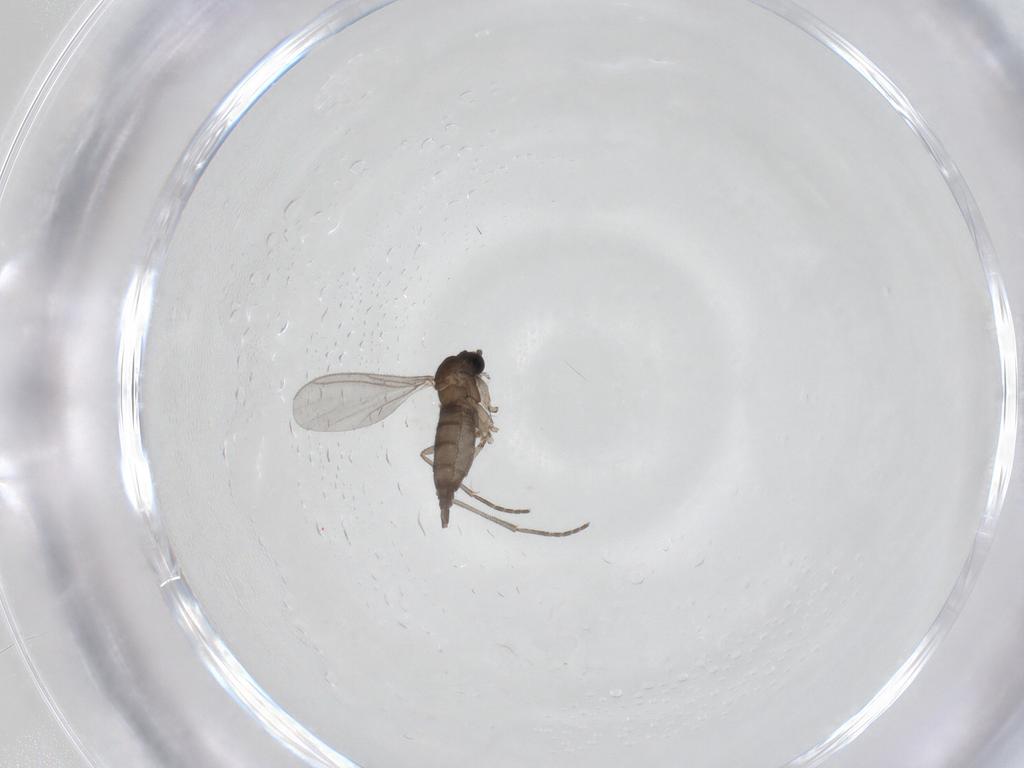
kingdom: Animalia
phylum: Arthropoda
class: Insecta
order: Diptera
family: Sciaridae
